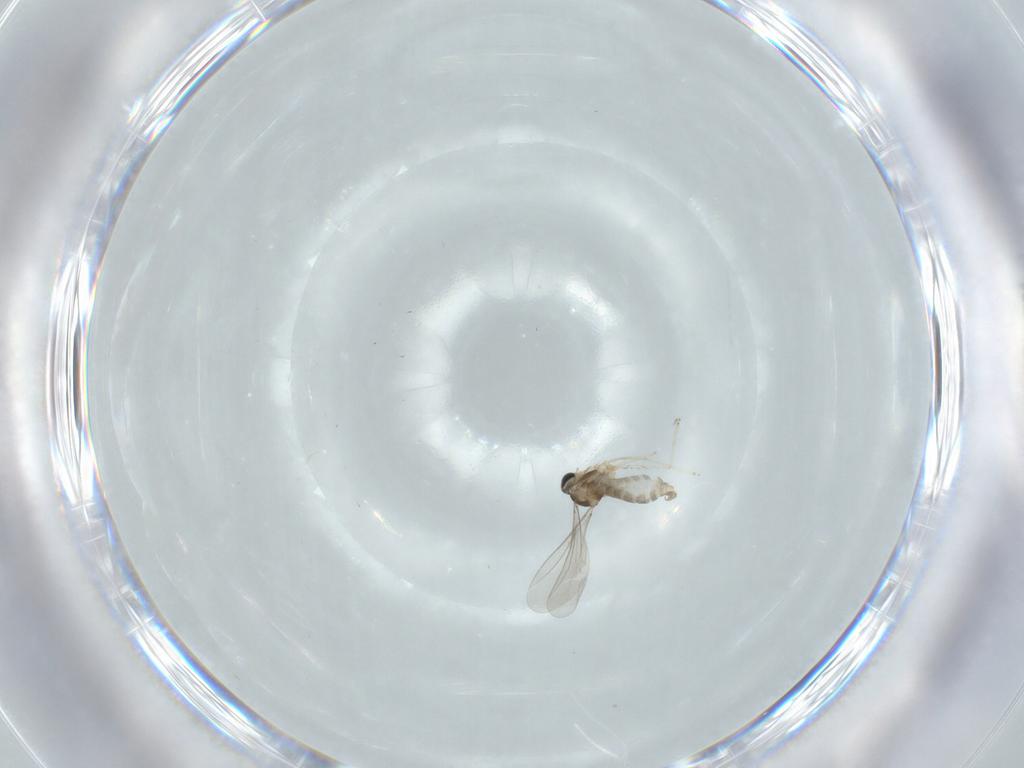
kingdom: Animalia
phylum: Arthropoda
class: Insecta
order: Diptera
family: Cecidomyiidae
